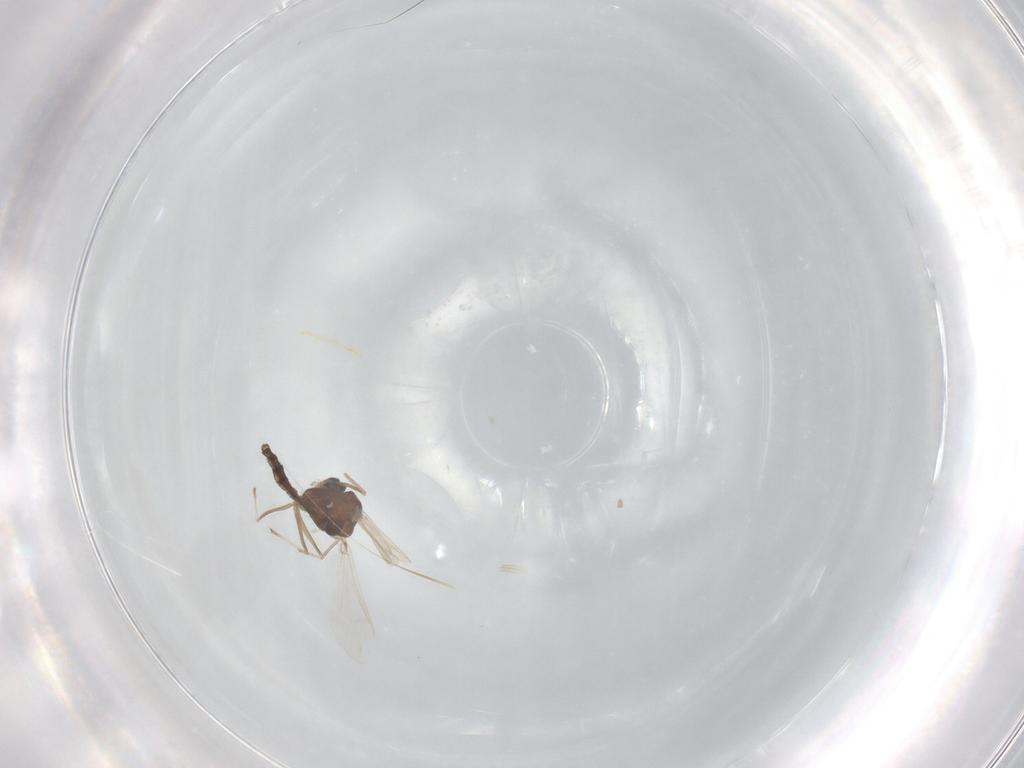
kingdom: Animalia
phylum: Arthropoda
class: Insecta
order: Diptera
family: Chironomidae
